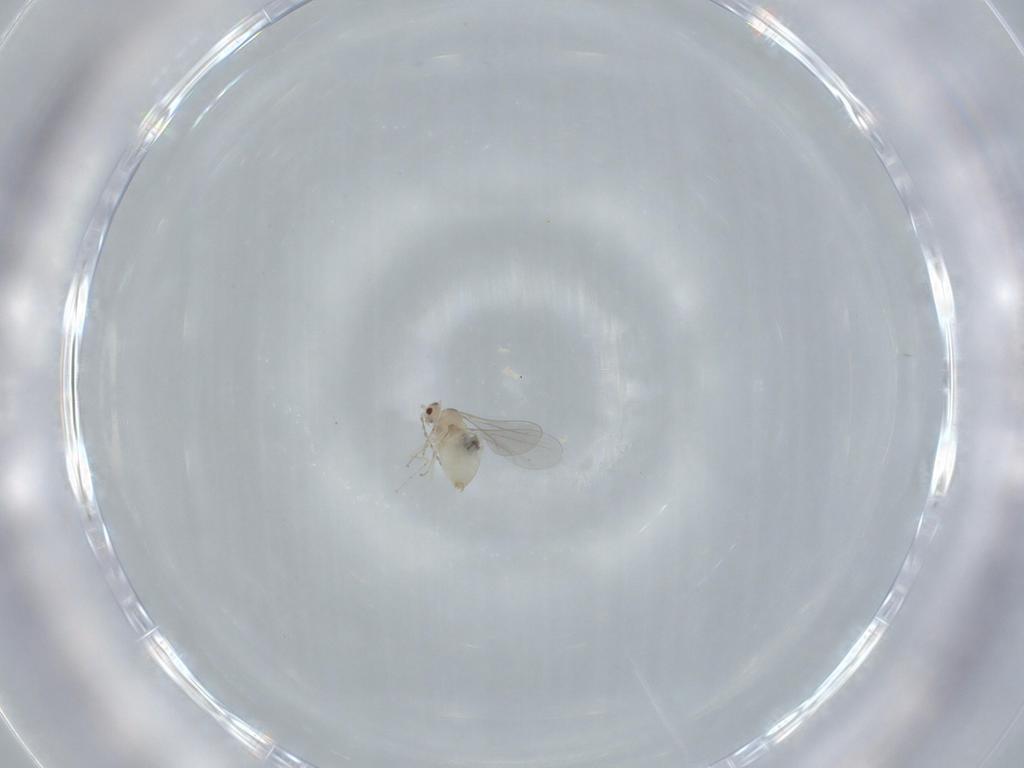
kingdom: Animalia
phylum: Arthropoda
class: Insecta
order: Diptera
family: Cecidomyiidae
